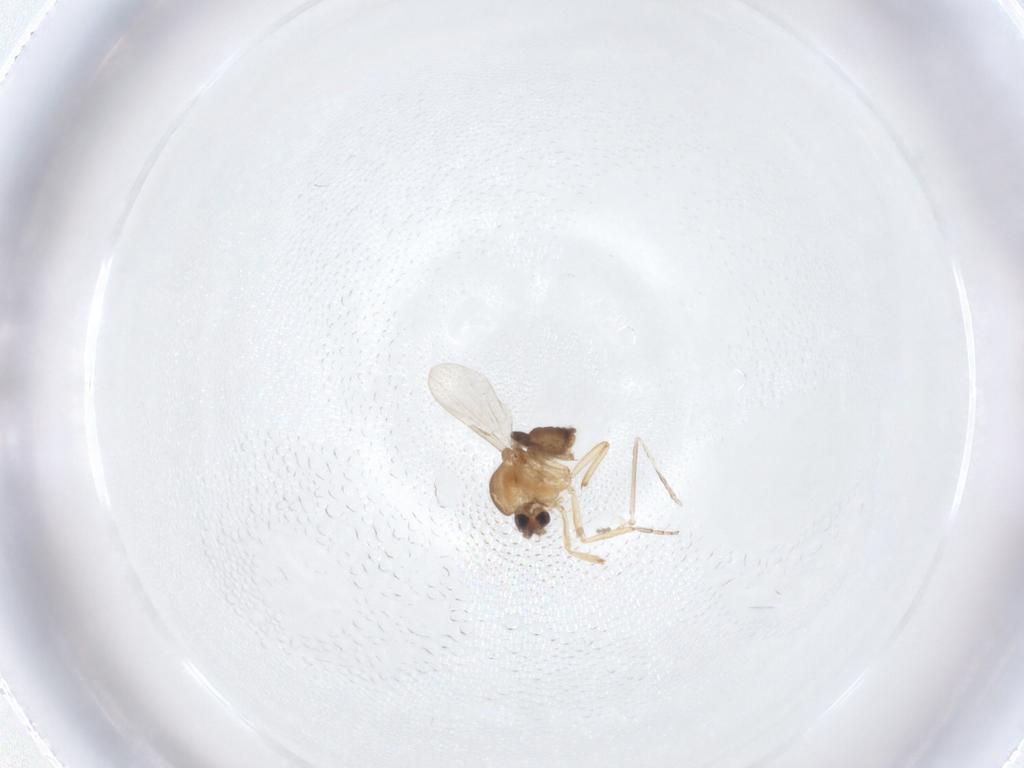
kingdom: Animalia
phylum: Arthropoda
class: Insecta
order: Diptera
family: Ceratopogonidae
